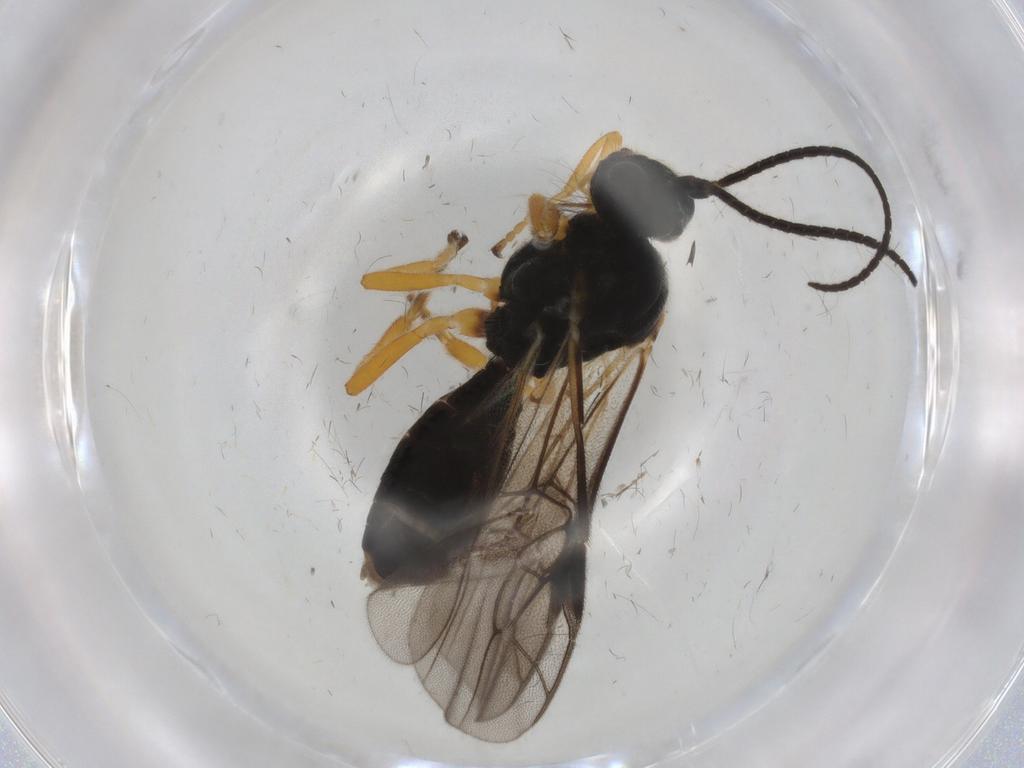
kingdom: Animalia
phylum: Arthropoda
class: Insecta
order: Hymenoptera
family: Braconidae
